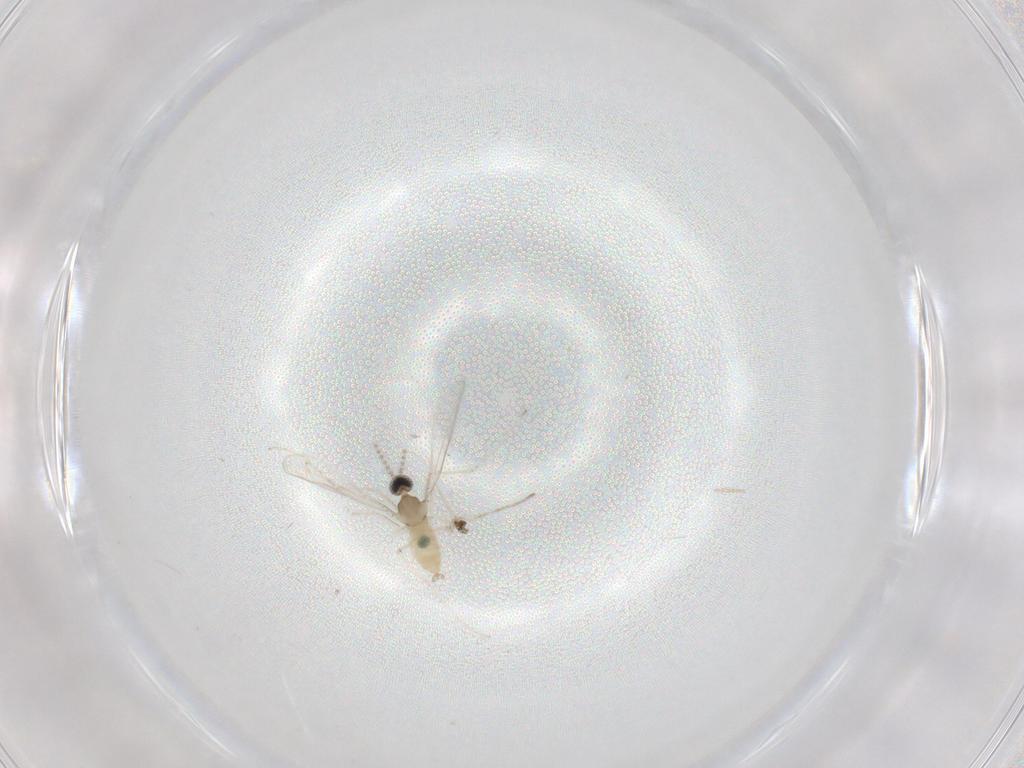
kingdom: Animalia
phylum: Arthropoda
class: Insecta
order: Diptera
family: Cecidomyiidae
